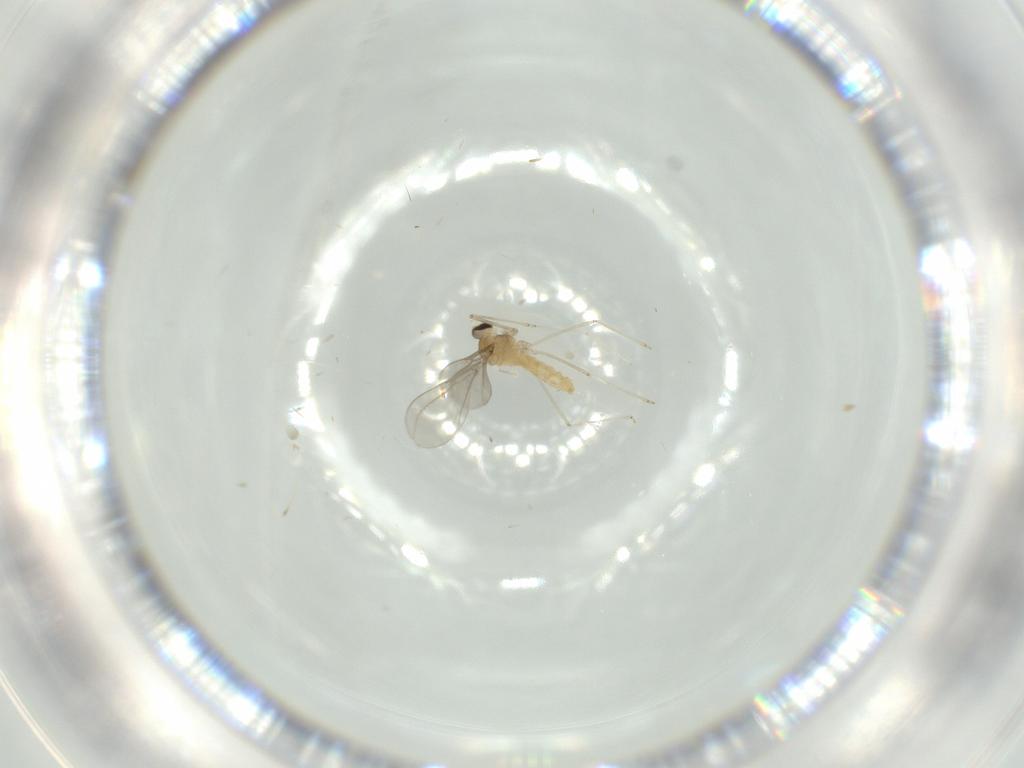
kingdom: Animalia
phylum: Arthropoda
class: Insecta
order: Diptera
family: Cecidomyiidae
